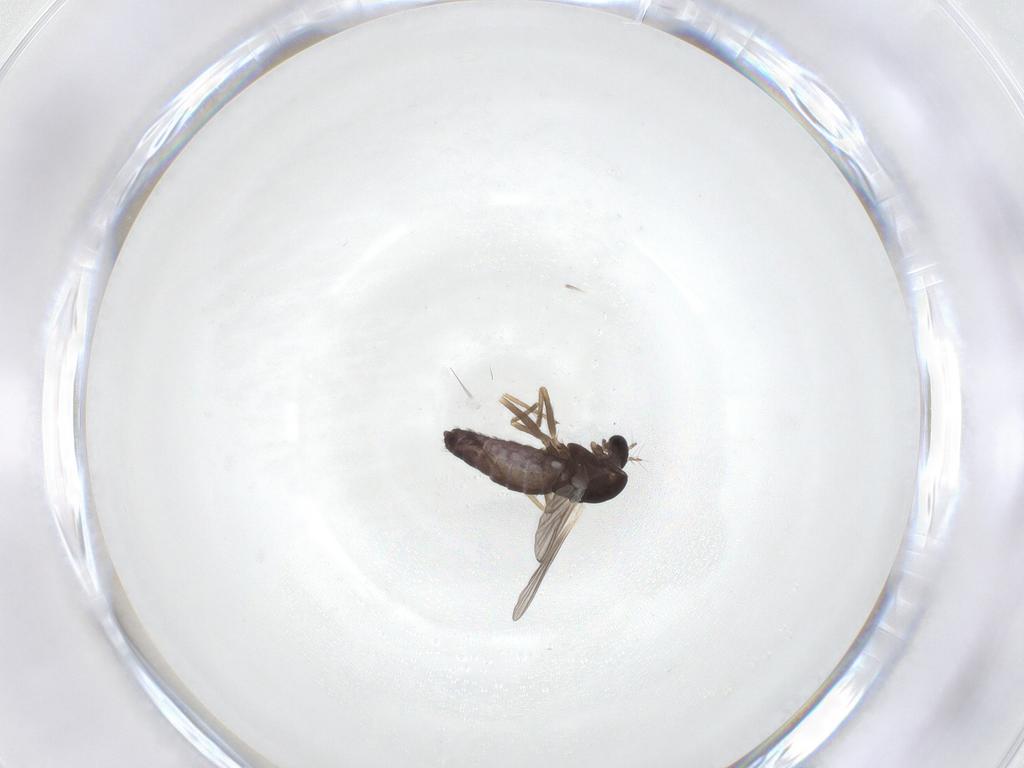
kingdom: Animalia
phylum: Arthropoda
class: Insecta
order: Diptera
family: Chironomidae
